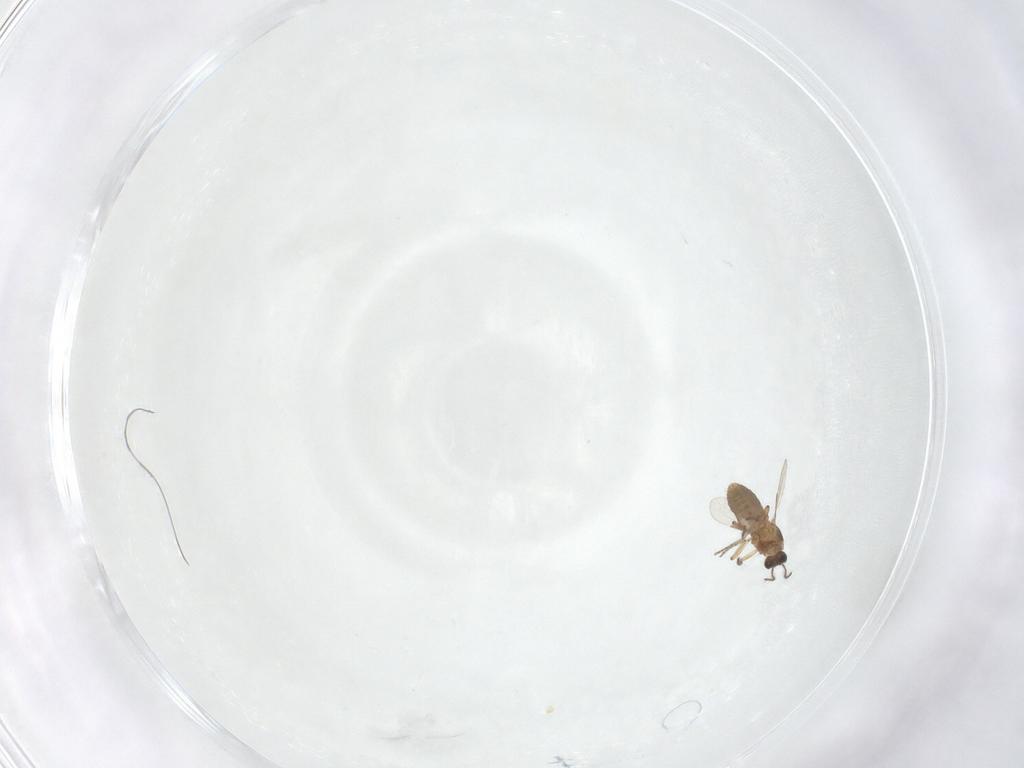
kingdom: Animalia
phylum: Arthropoda
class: Insecta
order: Diptera
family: Ceratopogonidae
